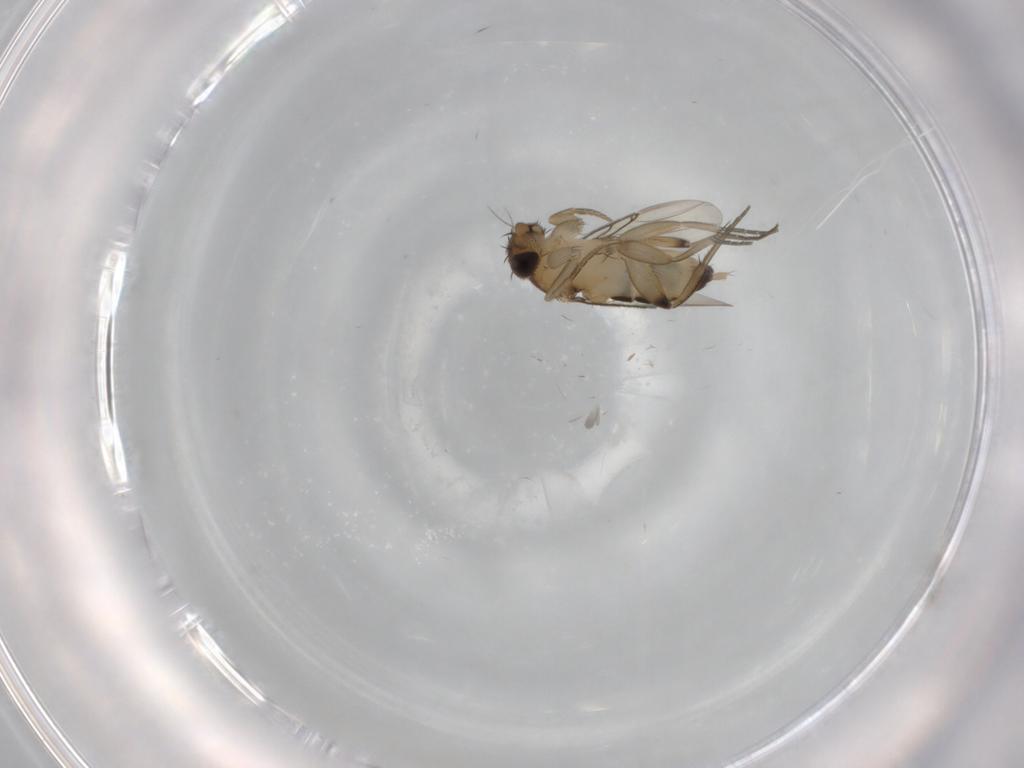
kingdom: Animalia
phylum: Arthropoda
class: Insecta
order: Diptera
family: Phoridae
